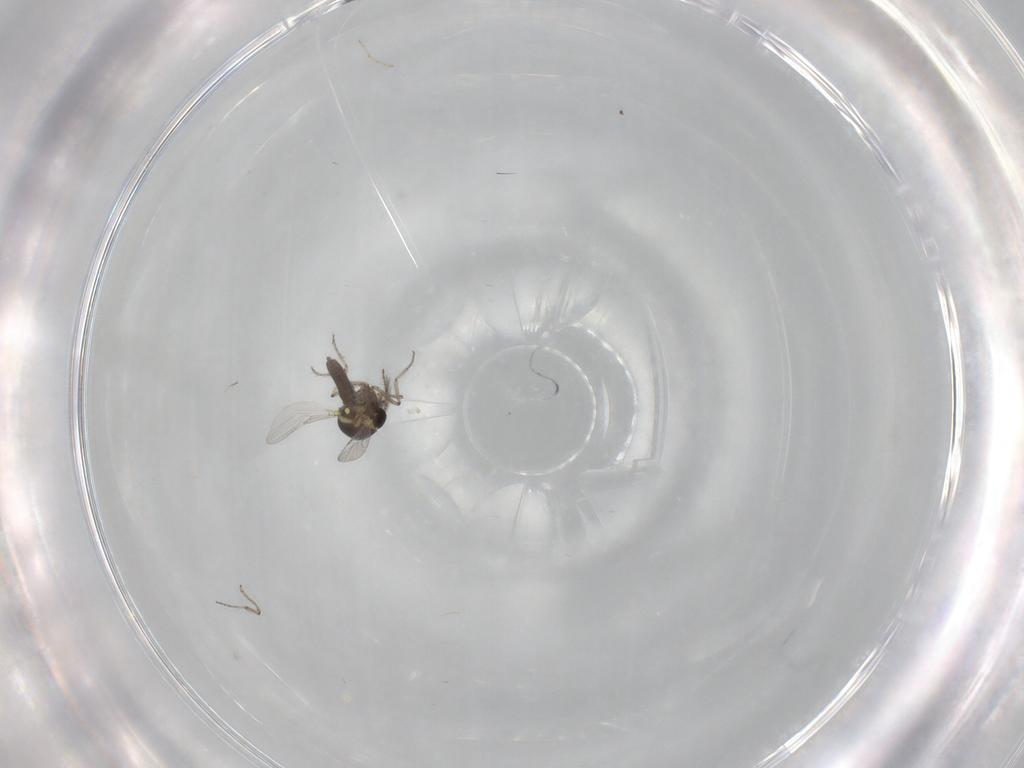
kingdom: Animalia
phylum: Arthropoda
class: Insecta
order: Diptera
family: Ceratopogonidae
